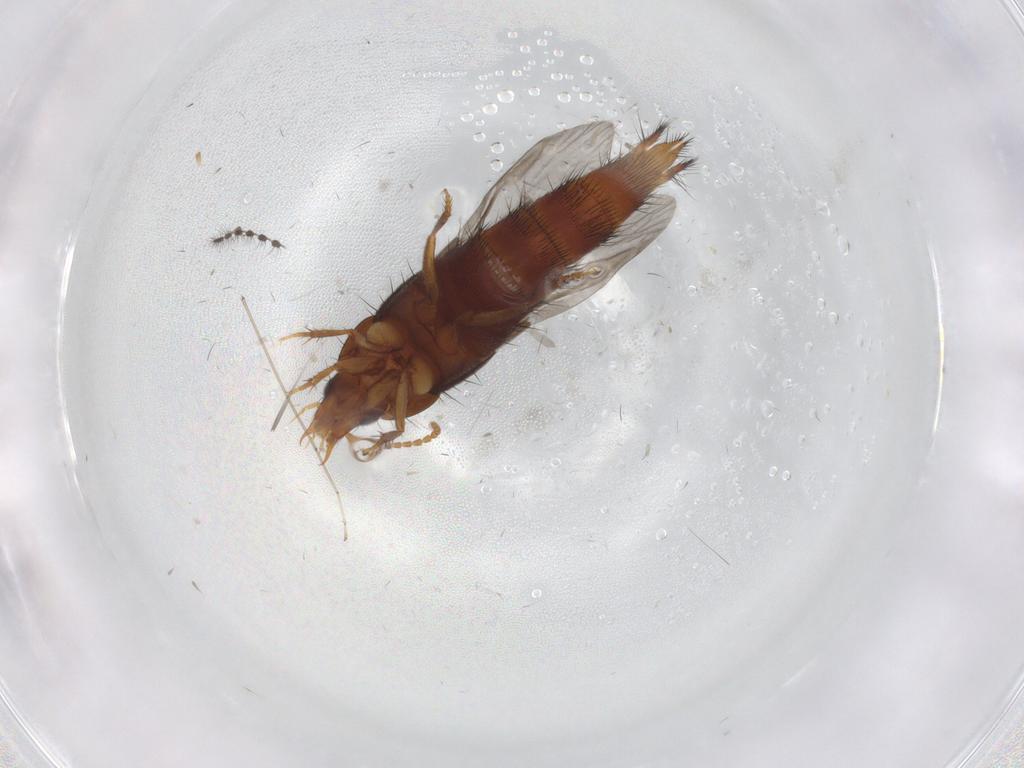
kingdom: Animalia
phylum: Arthropoda
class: Insecta
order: Coleoptera
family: Curculionidae
